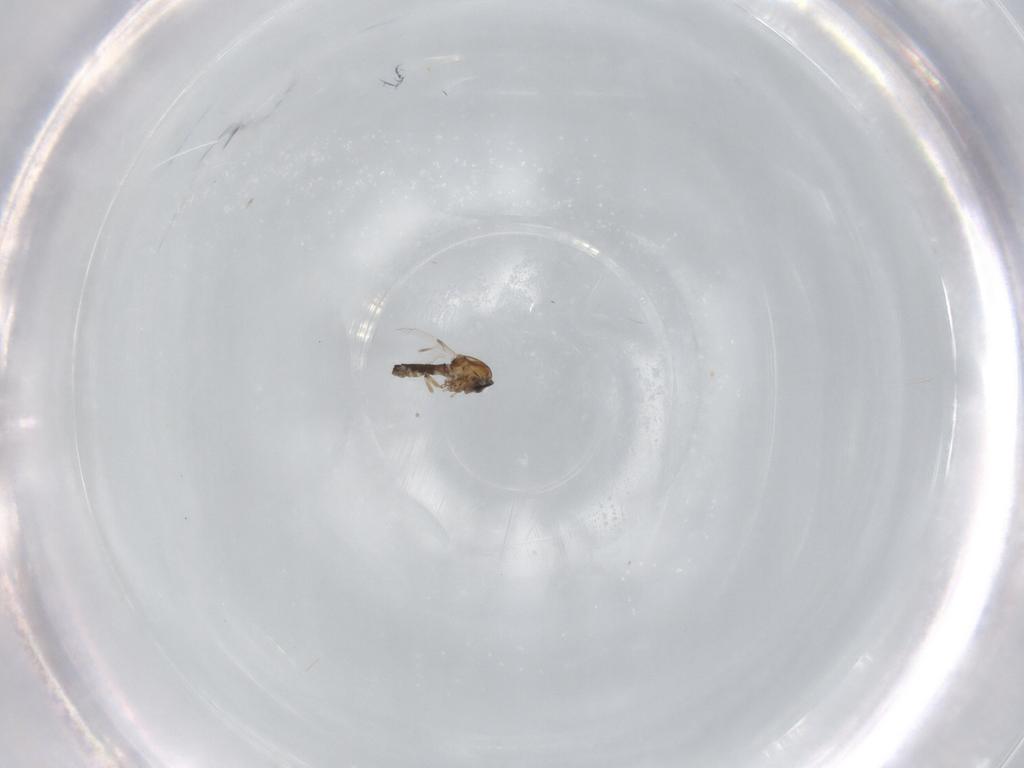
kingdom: Animalia
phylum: Arthropoda
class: Insecta
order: Diptera
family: Ceratopogonidae
